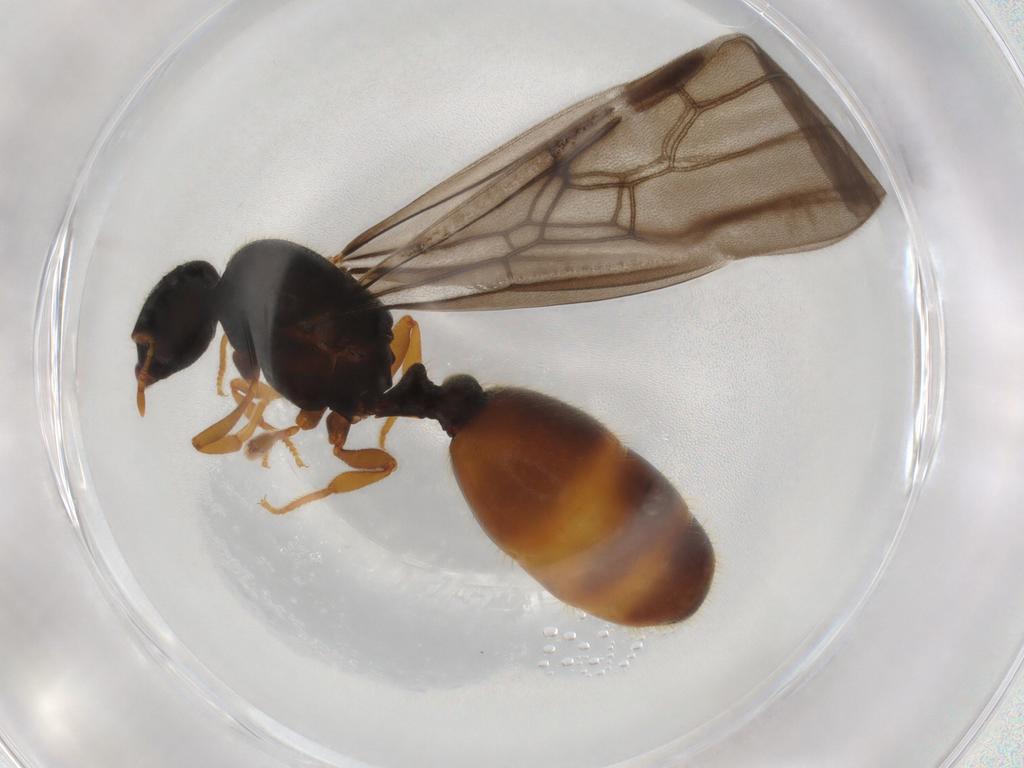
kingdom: Animalia
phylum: Arthropoda
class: Insecta
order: Hymenoptera
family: Formicidae
